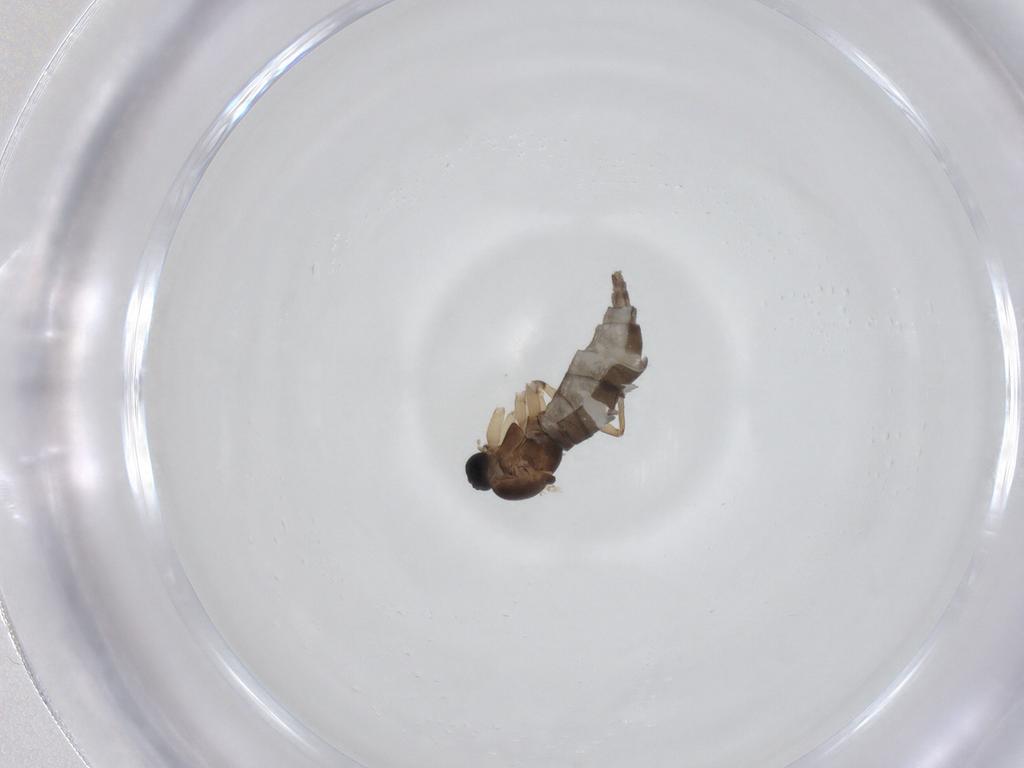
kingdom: Animalia
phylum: Arthropoda
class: Insecta
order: Diptera
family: Sciaridae
